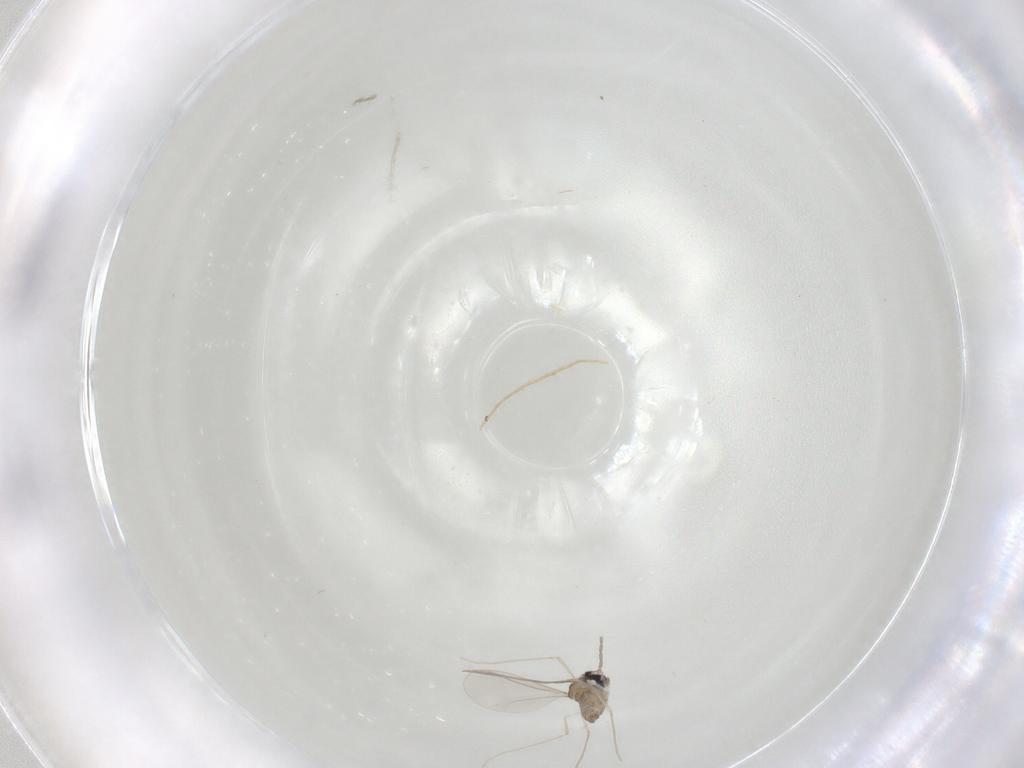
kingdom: Animalia
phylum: Arthropoda
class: Insecta
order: Diptera
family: Cecidomyiidae
